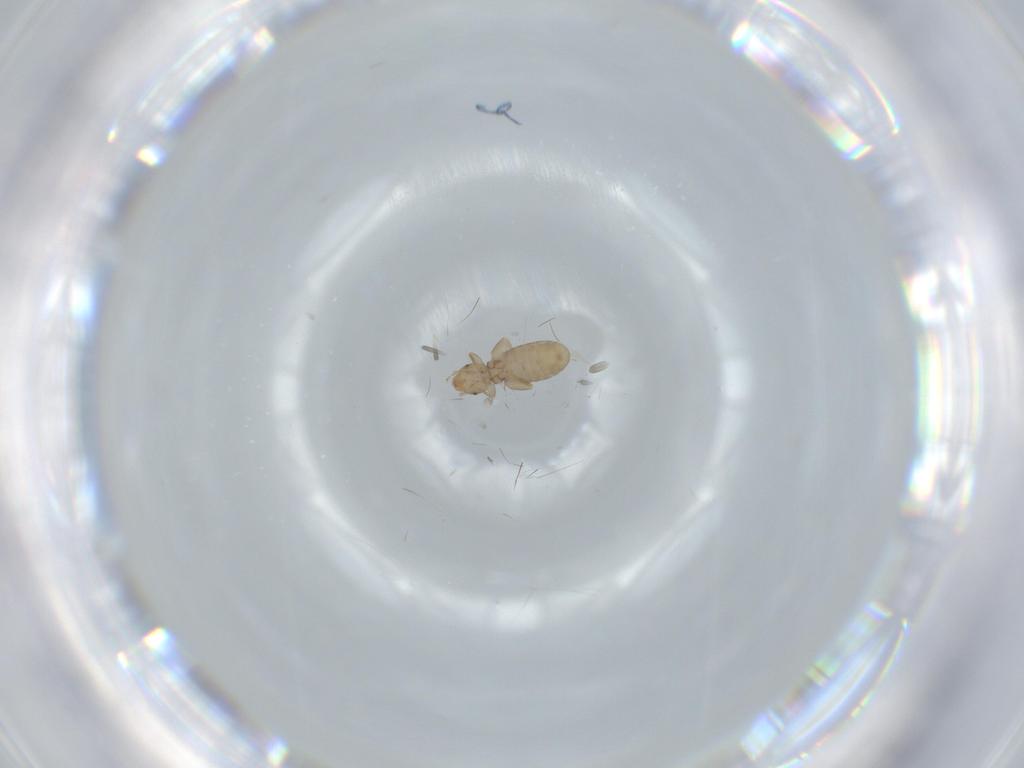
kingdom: Animalia
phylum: Arthropoda
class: Insecta
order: Psocodea
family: Liposcelididae
